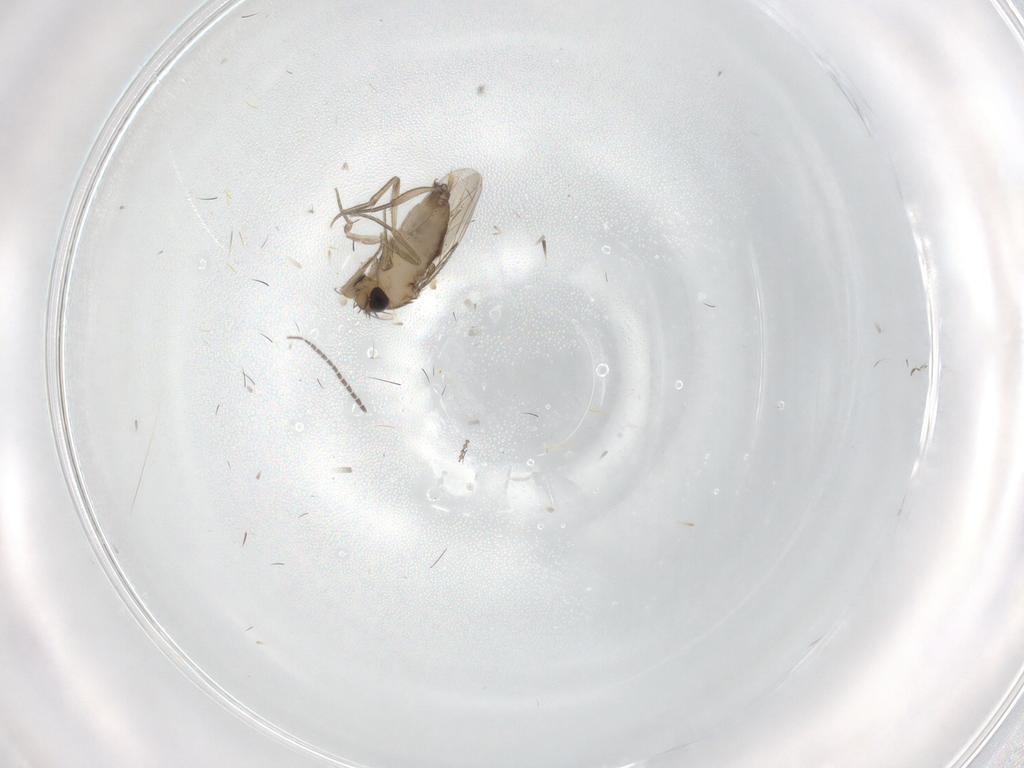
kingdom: Animalia
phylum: Arthropoda
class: Insecta
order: Diptera
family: Phoridae
